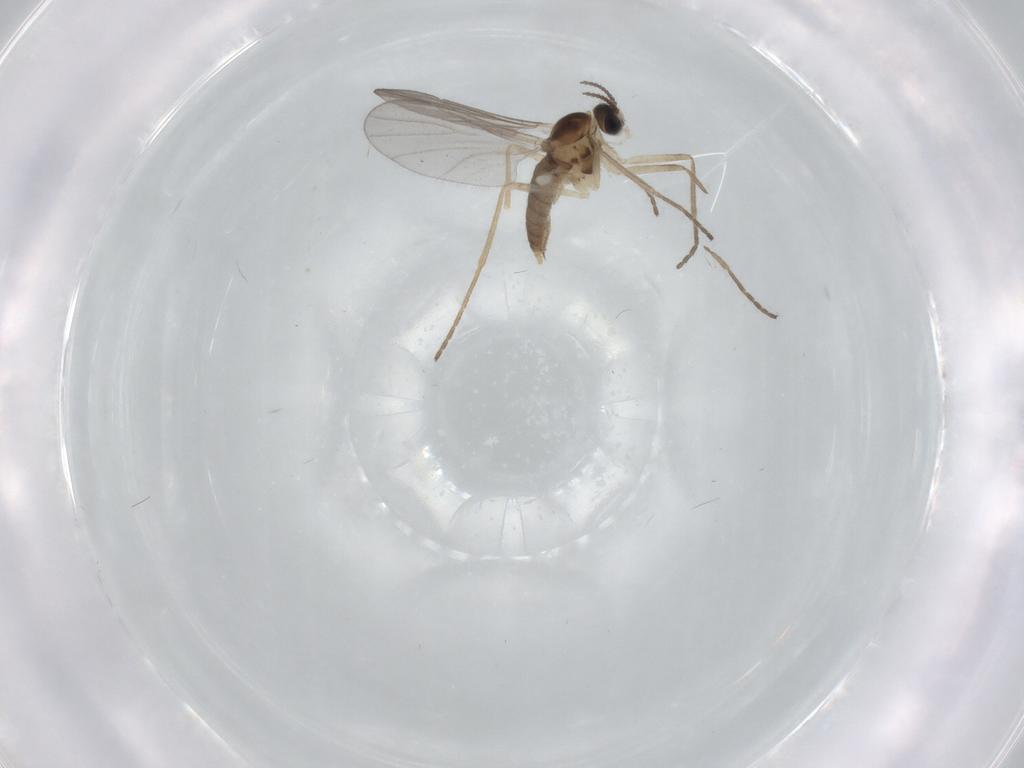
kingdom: Animalia
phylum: Arthropoda
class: Insecta
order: Diptera
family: Cecidomyiidae
